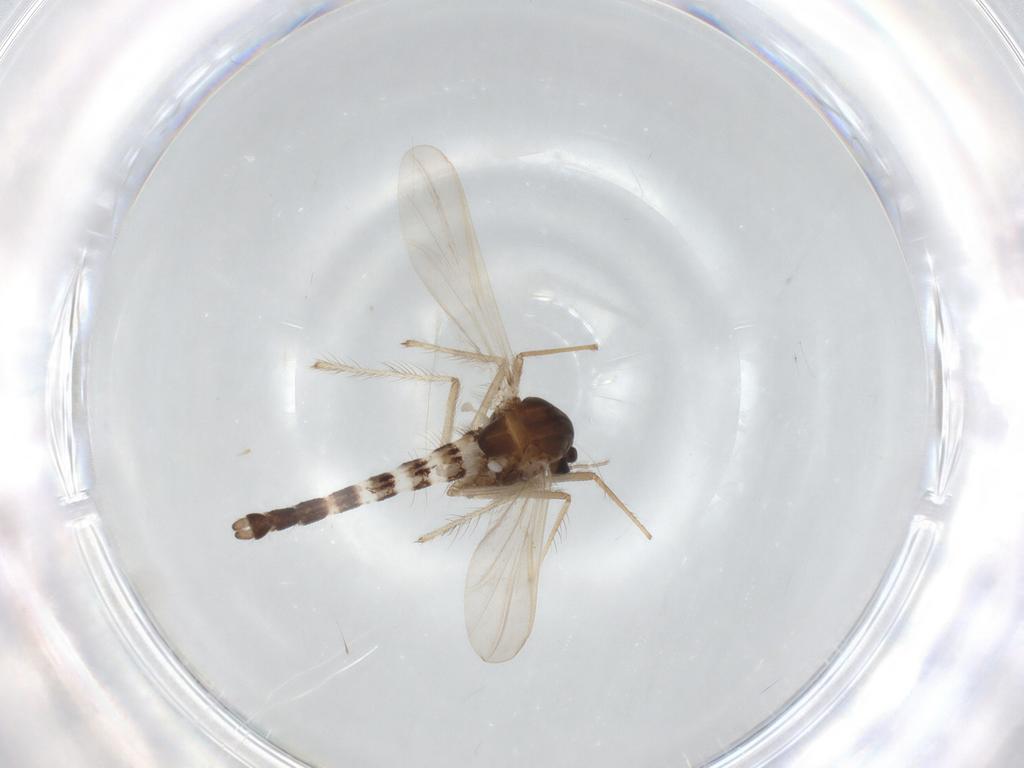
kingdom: Animalia
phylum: Arthropoda
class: Insecta
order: Diptera
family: Chironomidae
